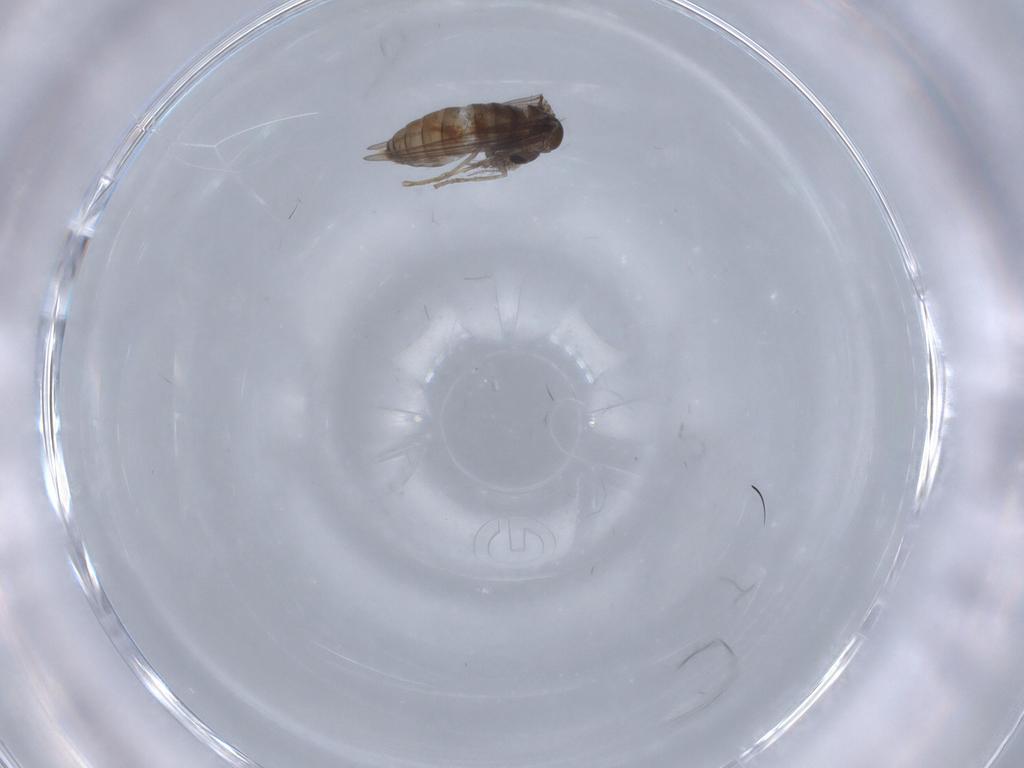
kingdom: Animalia
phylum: Arthropoda
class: Insecta
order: Diptera
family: Psychodidae
